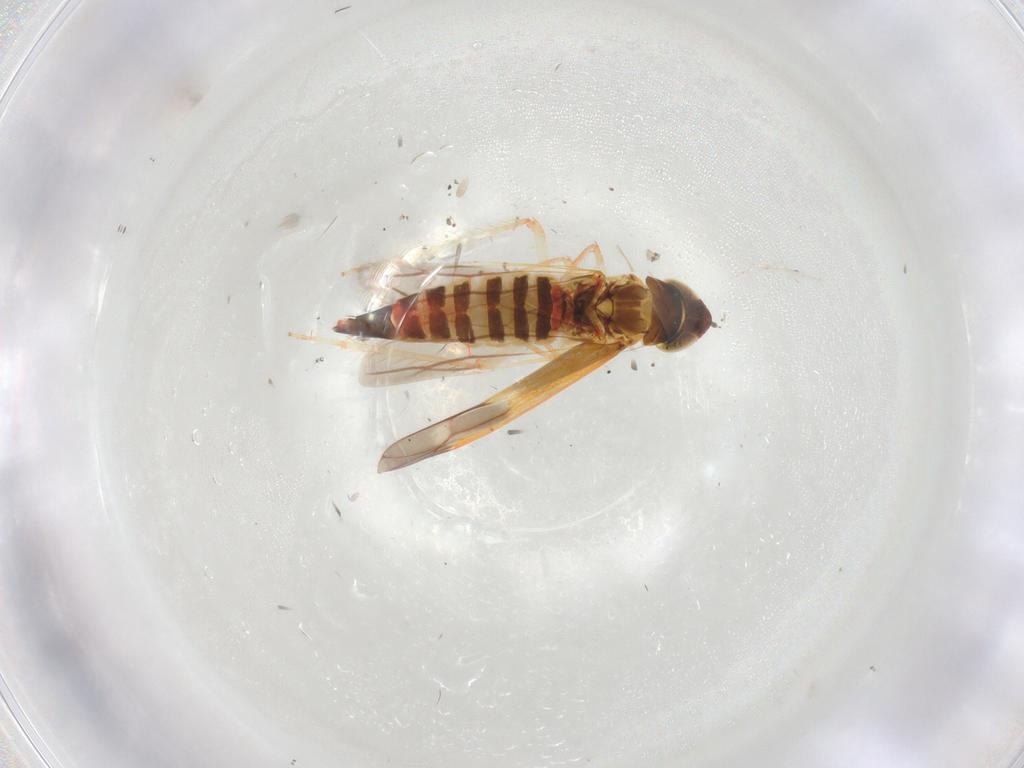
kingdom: Animalia
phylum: Arthropoda
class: Insecta
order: Hemiptera
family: Cicadellidae
